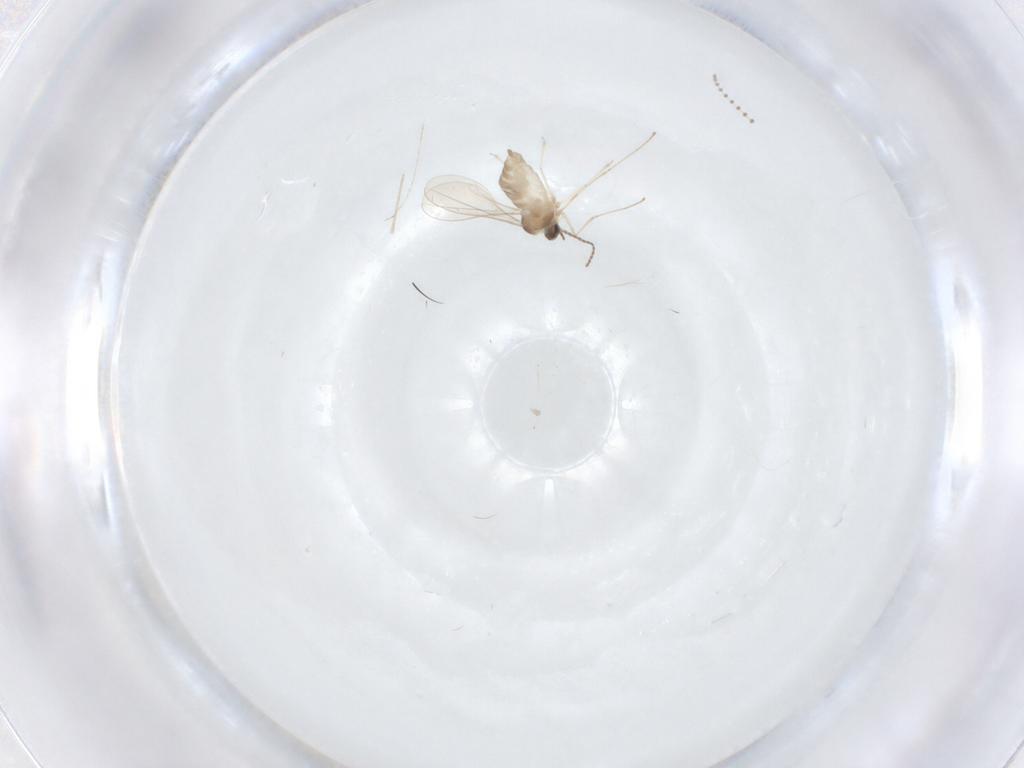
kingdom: Animalia
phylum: Arthropoda
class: Insecta
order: Diptera
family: Cecidomyiidae
